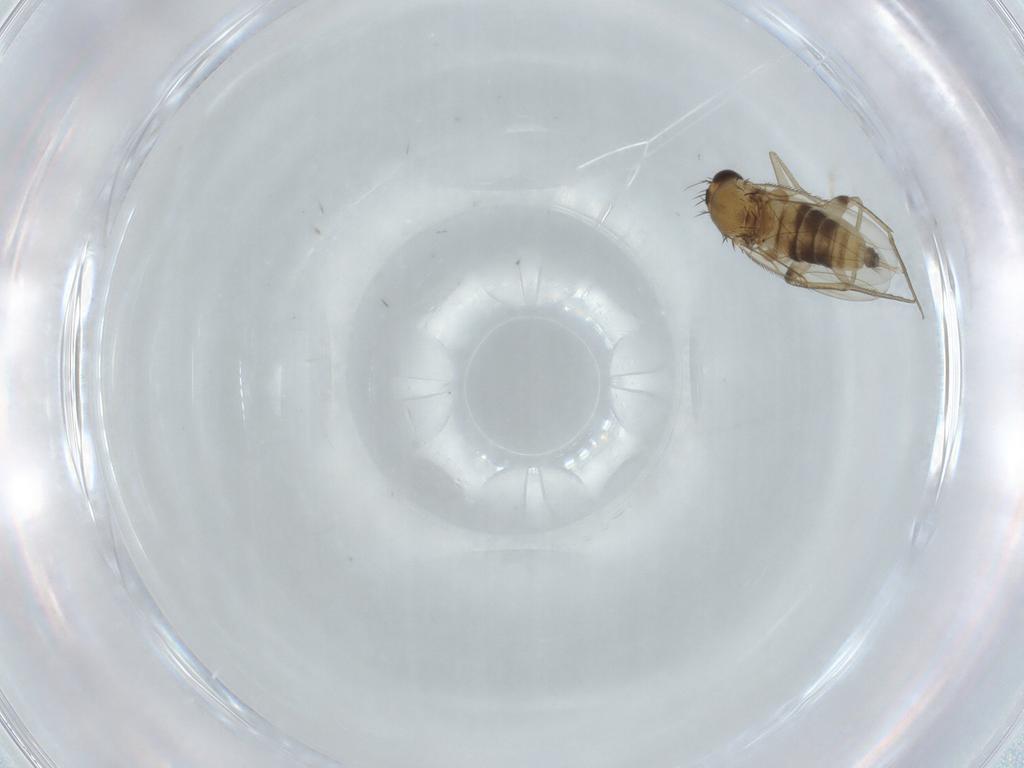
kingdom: Animalia
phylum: Arthropoda
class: Insecta
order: Diptera
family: Phoridae
